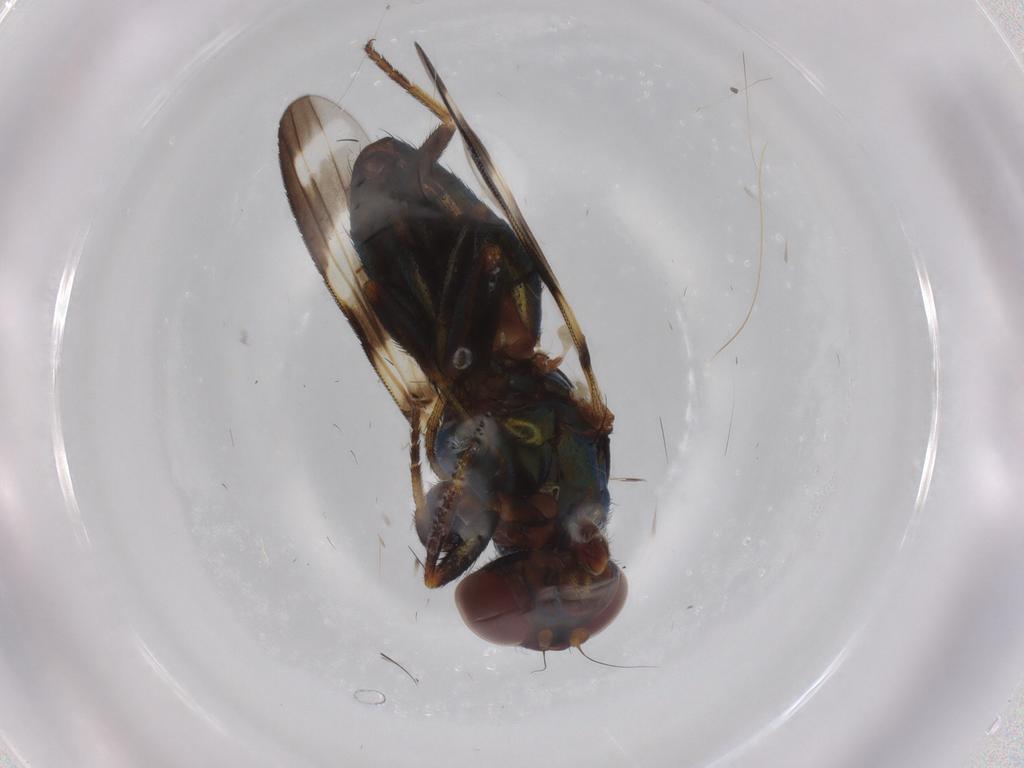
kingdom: Animalia
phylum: Arthropoda
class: Insecta
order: Diptera
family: Ulidiidae
